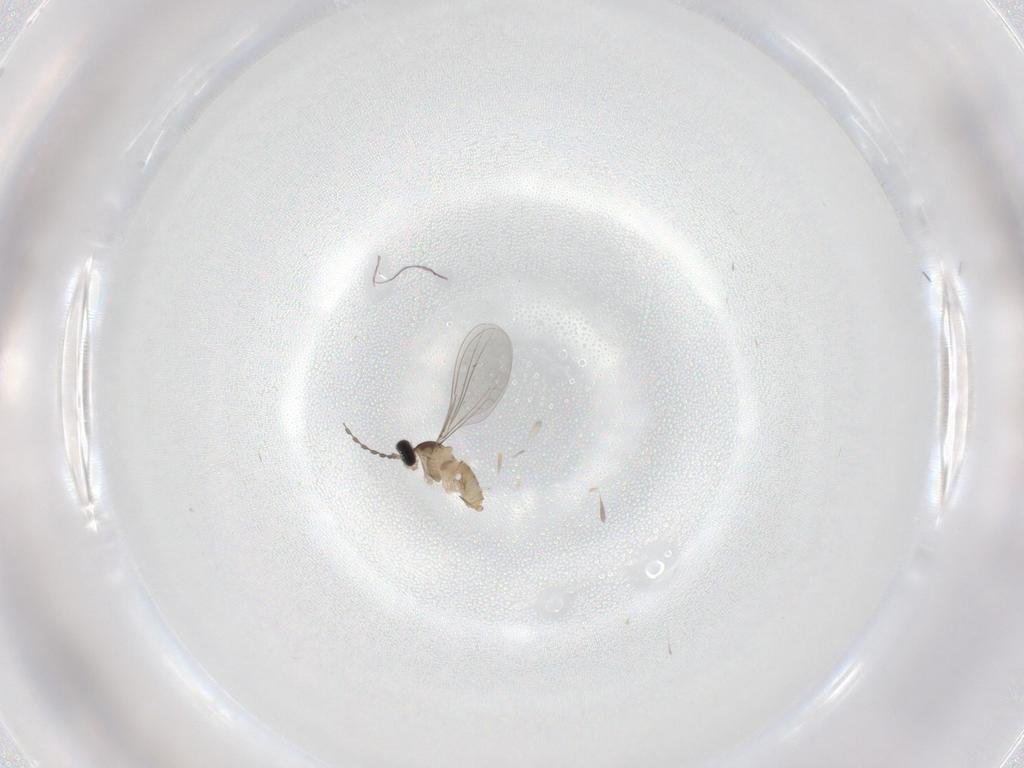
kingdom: Animalia
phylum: Arthropoda
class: Insecta
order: Diptera
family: Cecidomyiidae
